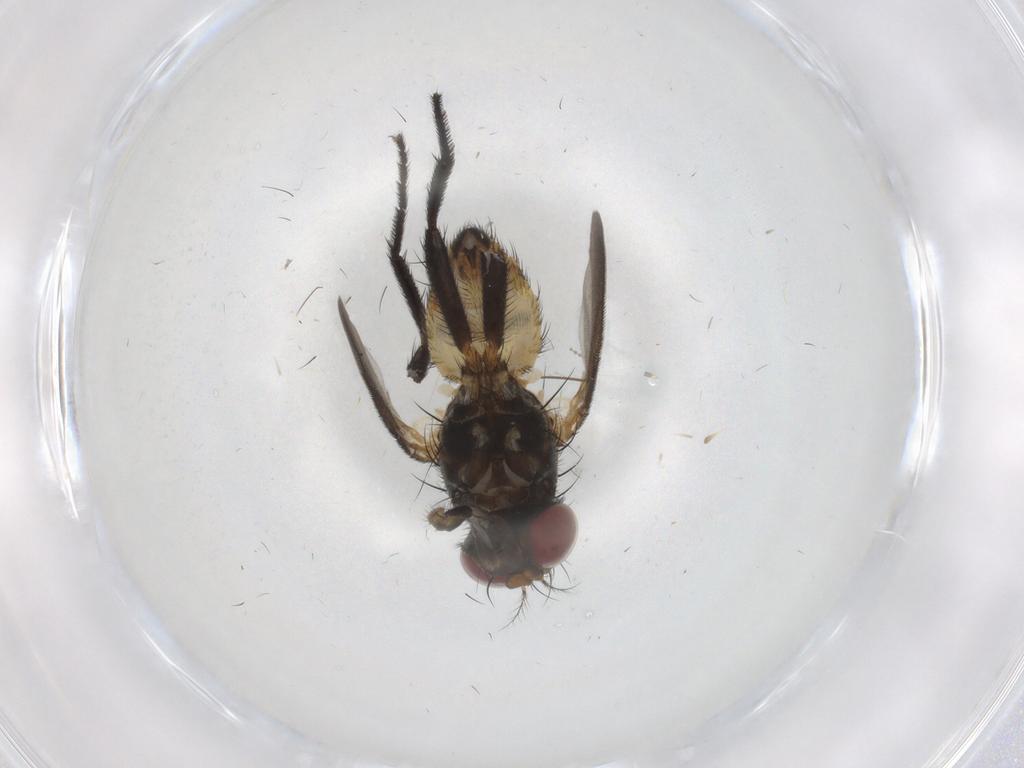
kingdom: Animalia
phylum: Arthropoda
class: Insecta
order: Diptera
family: Anthomyiidae
